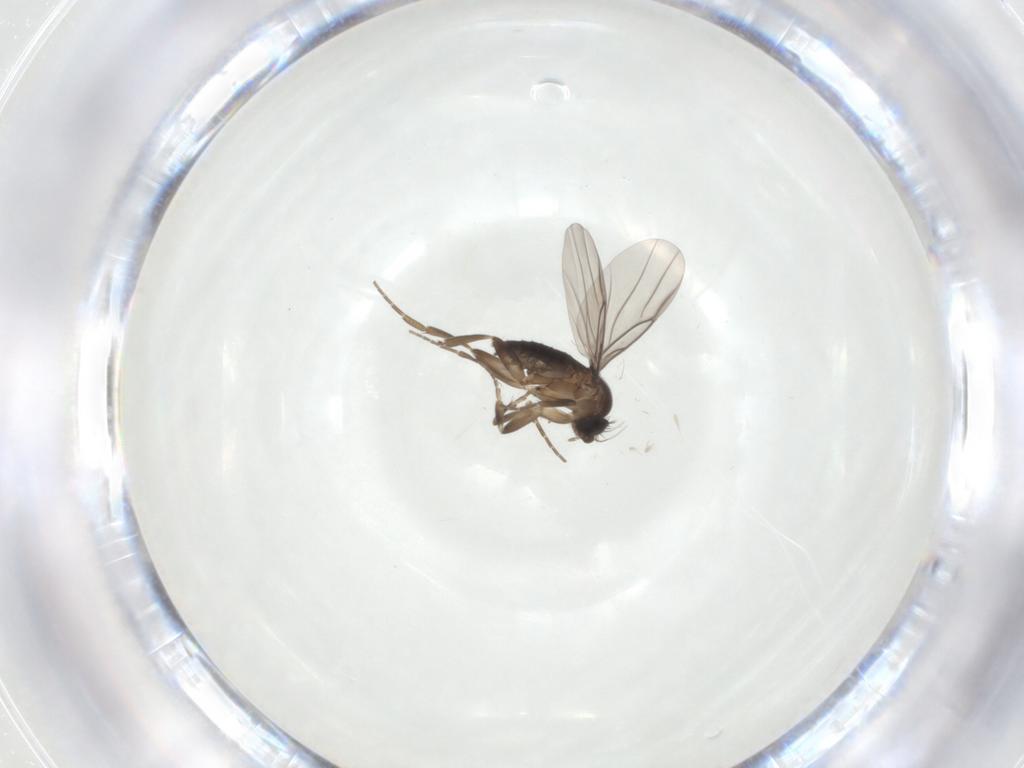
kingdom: Animalia
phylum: Arthropoda
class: Insecta
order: Diptera
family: Phoridae
